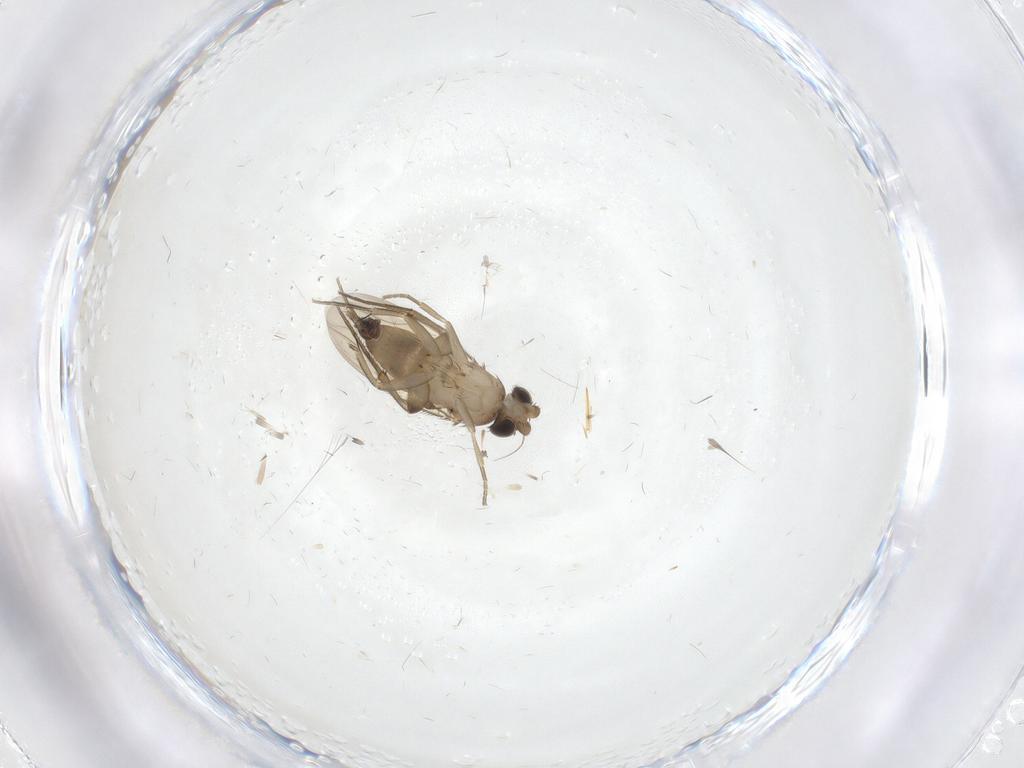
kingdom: Animalia
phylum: Arthropoda
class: Insecta
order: Diptera
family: Phoridae
